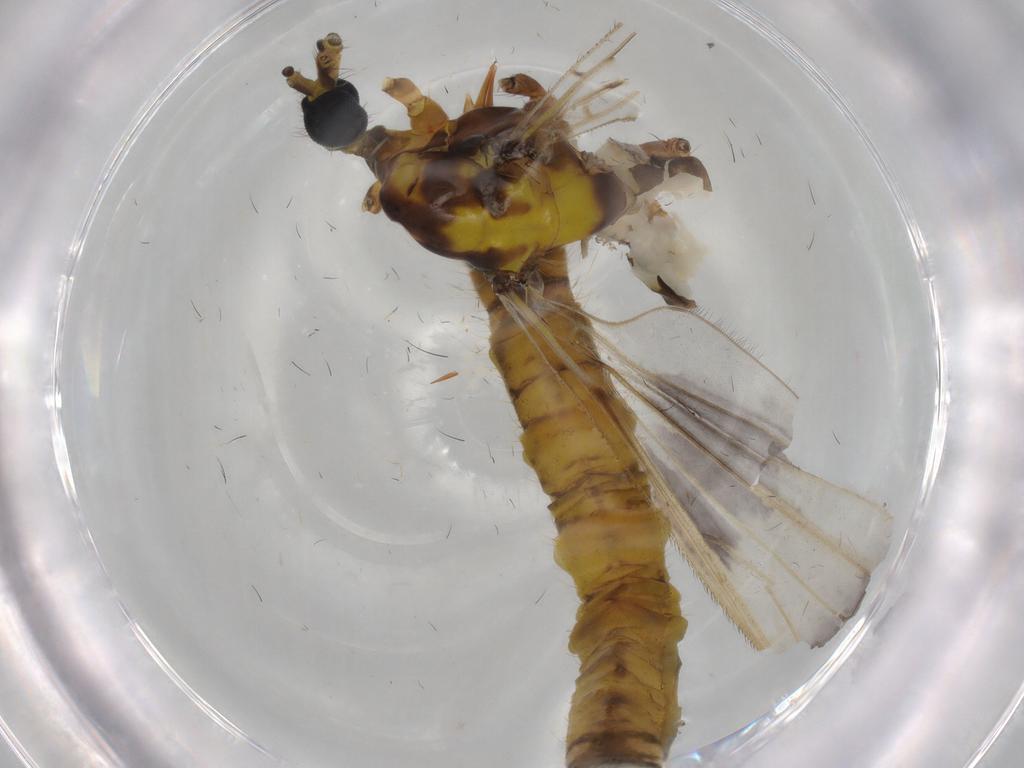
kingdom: Animalia
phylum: Arthropoda
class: Insecta
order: Diptera
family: Limoniidae
